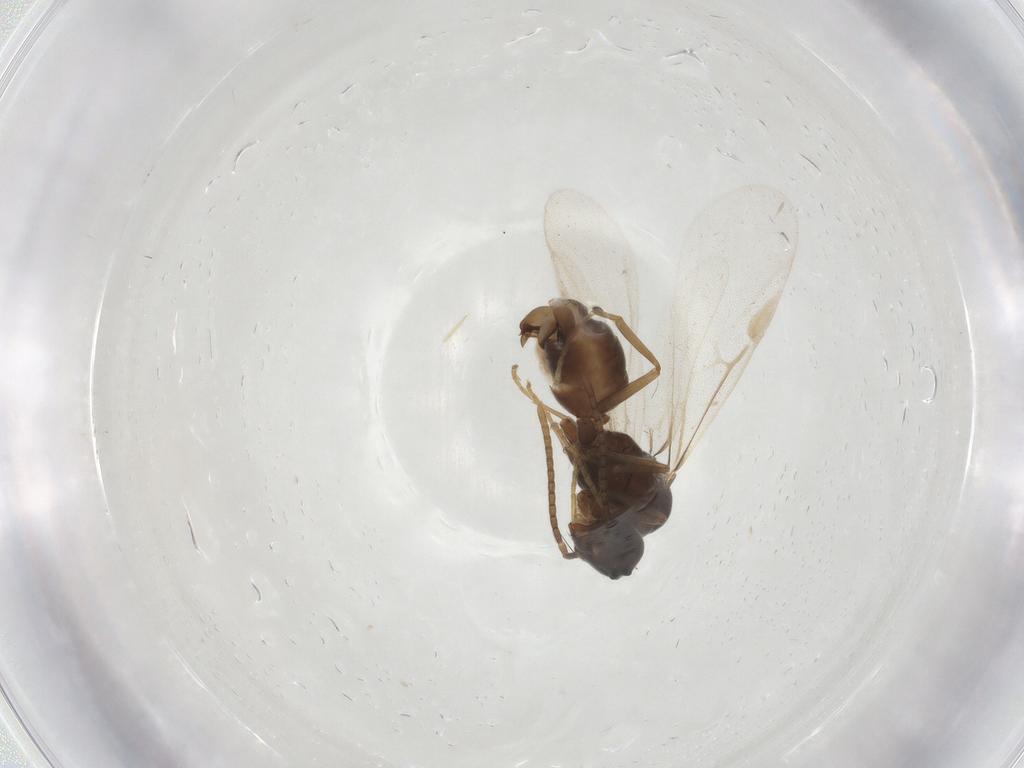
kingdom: Animalia
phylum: Arthropoda
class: Insecta
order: Hymenoptera
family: Formicidae
